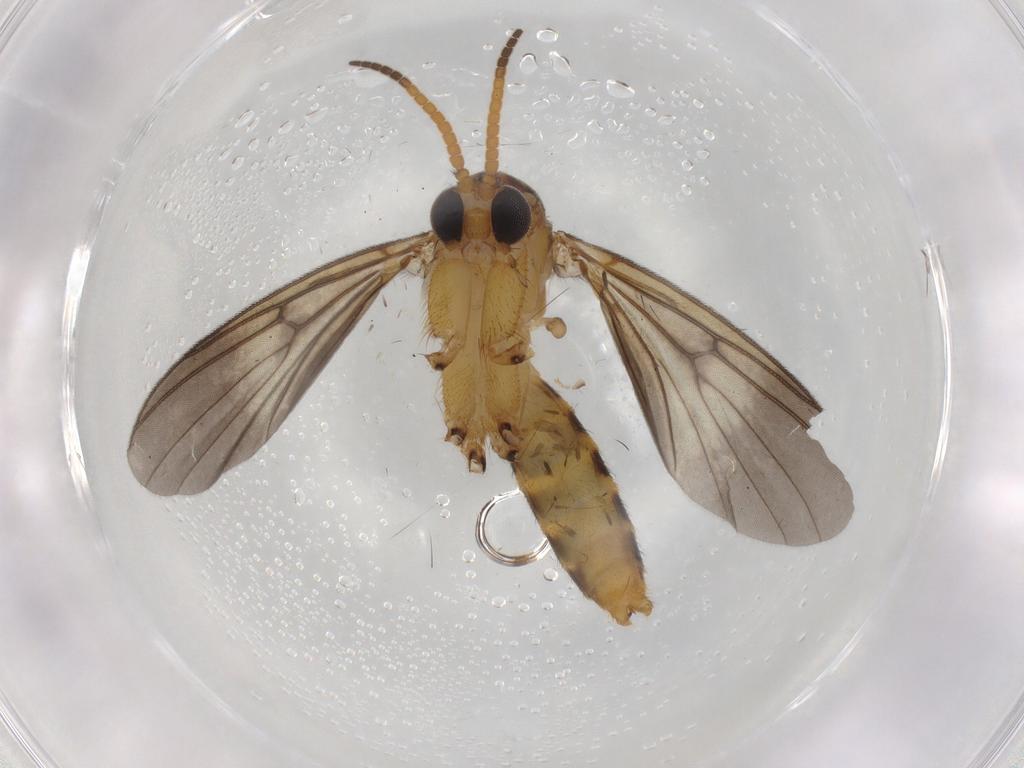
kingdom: Animalia
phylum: Arthropoda
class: Insecta
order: Diptera
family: Chironomidae
